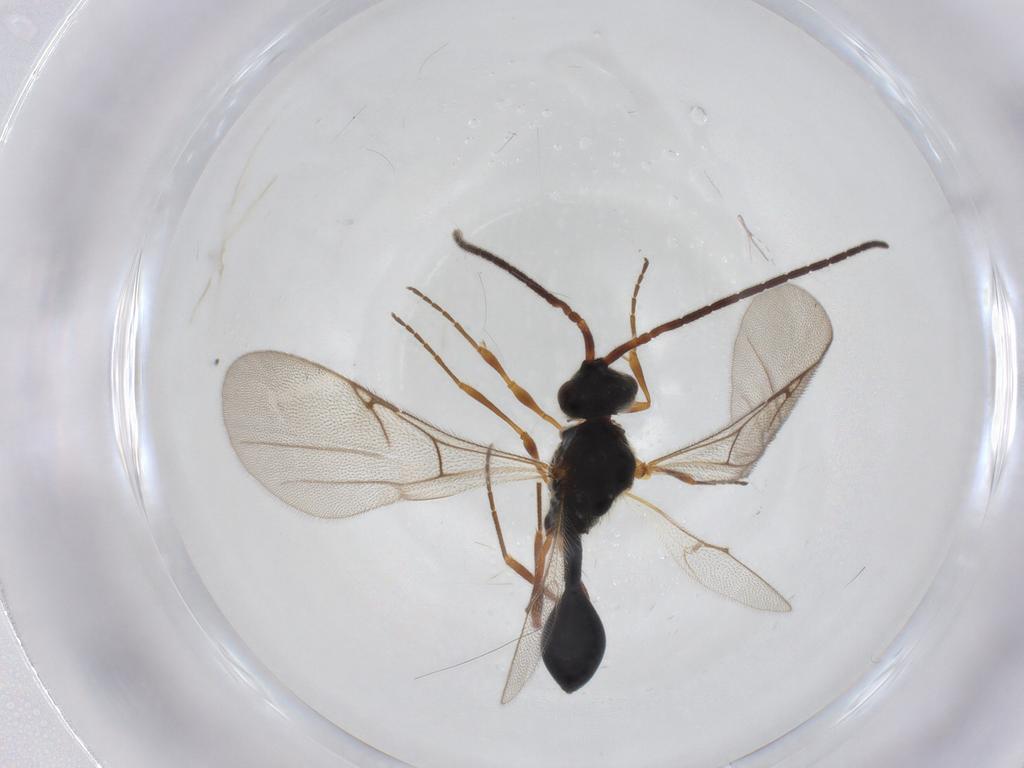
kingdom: Animalia
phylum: Arthropoda
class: Insecta
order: Hymenoptera
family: Diapriidae
